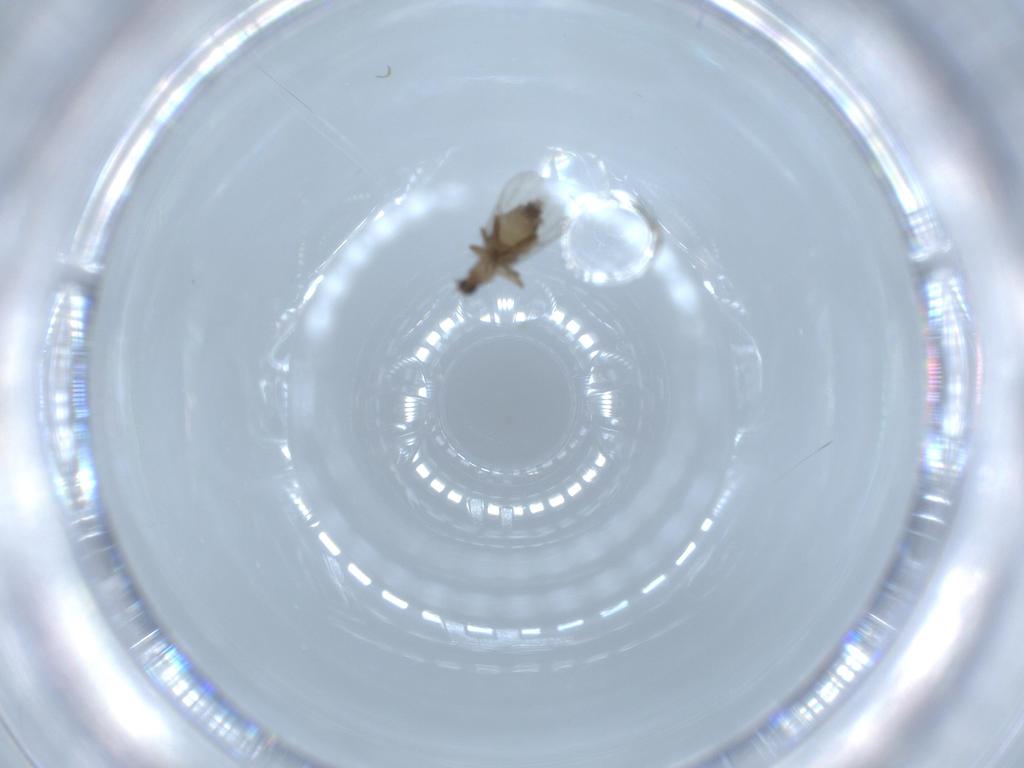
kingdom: Animalia
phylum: Arthropoda
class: Insecta
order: Diptera
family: Phoridae
